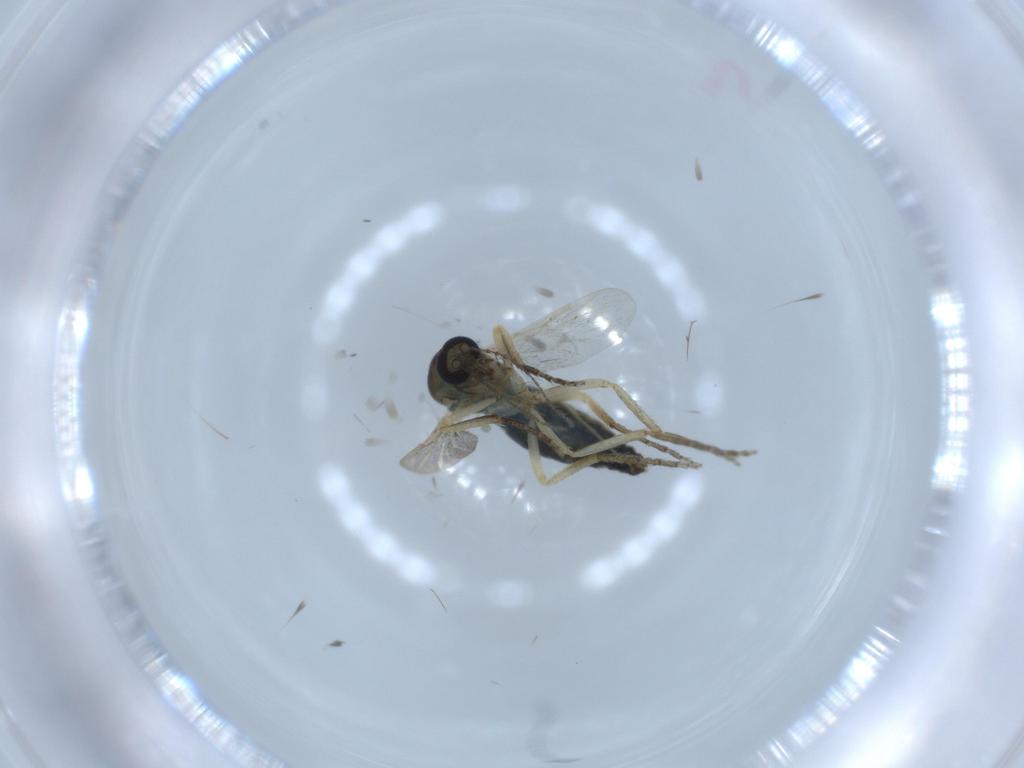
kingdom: Animalia
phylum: Arthropoda
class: Insecta
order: Diptera
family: Ceratopogonidae
